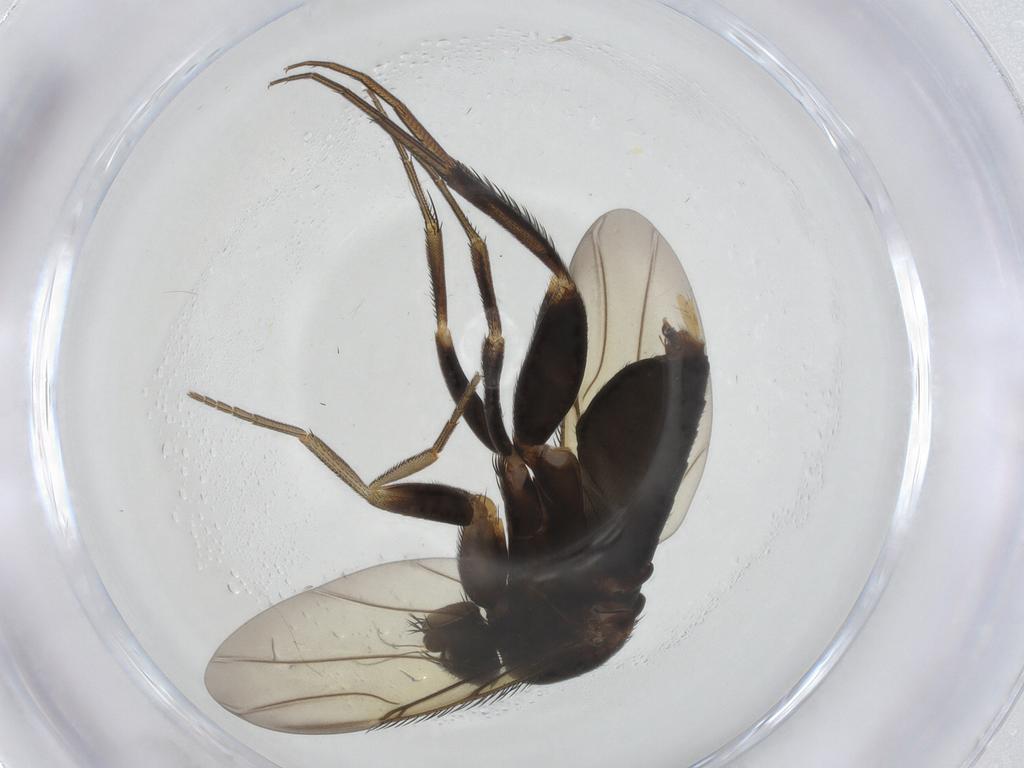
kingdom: Animalia
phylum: Arthropoda
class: Insecta
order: Diptera
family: Phoridae
